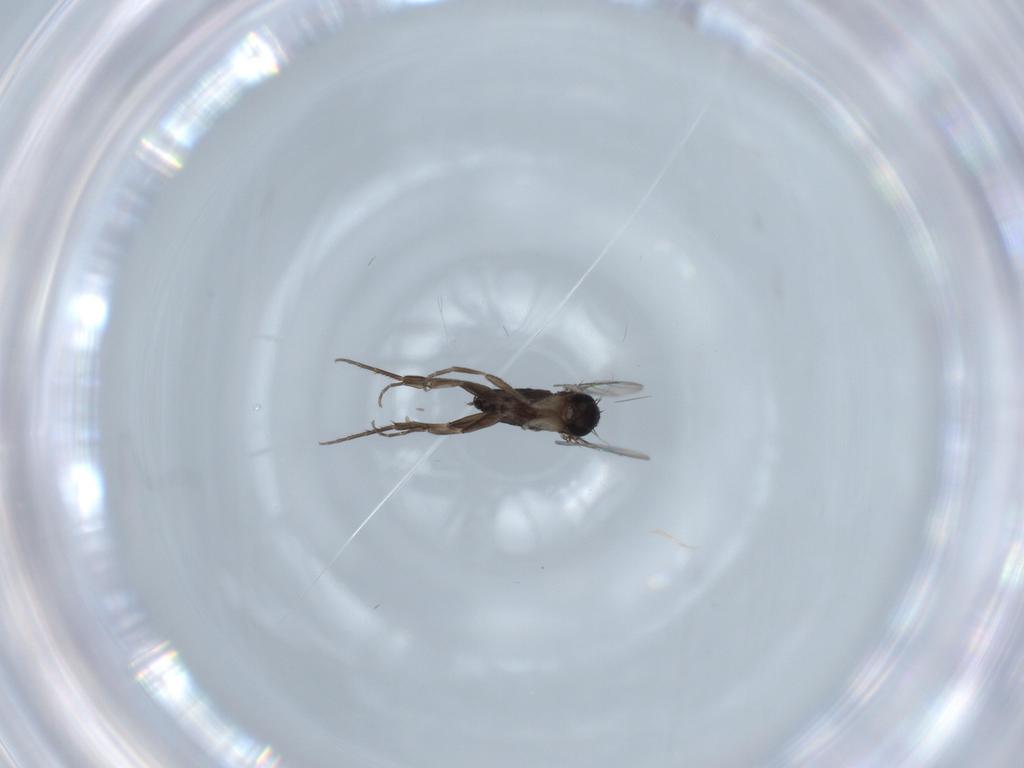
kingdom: Animalia
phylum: Arthropoda
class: Insecta
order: Diptera
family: Phoridae
